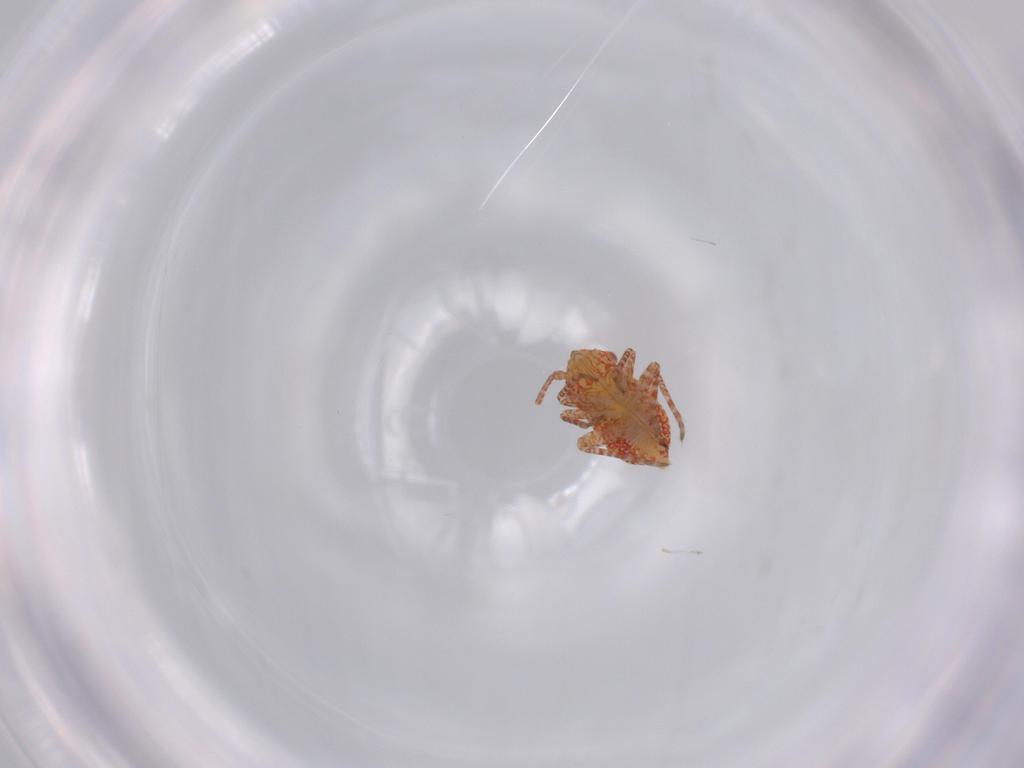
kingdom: Animalia
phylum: Arthropoda
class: Insecta
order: Hemiptera
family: Miridae
